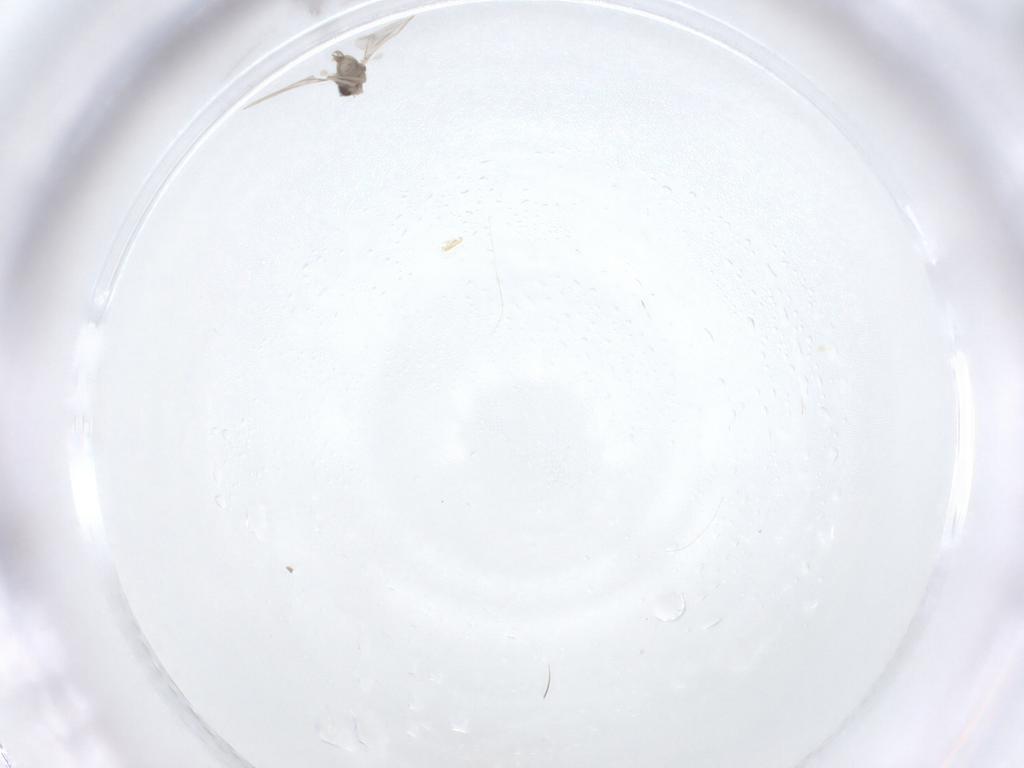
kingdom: Animalia
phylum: Arthropoda
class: Insecta
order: Diptera
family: Cecidomyiidae
